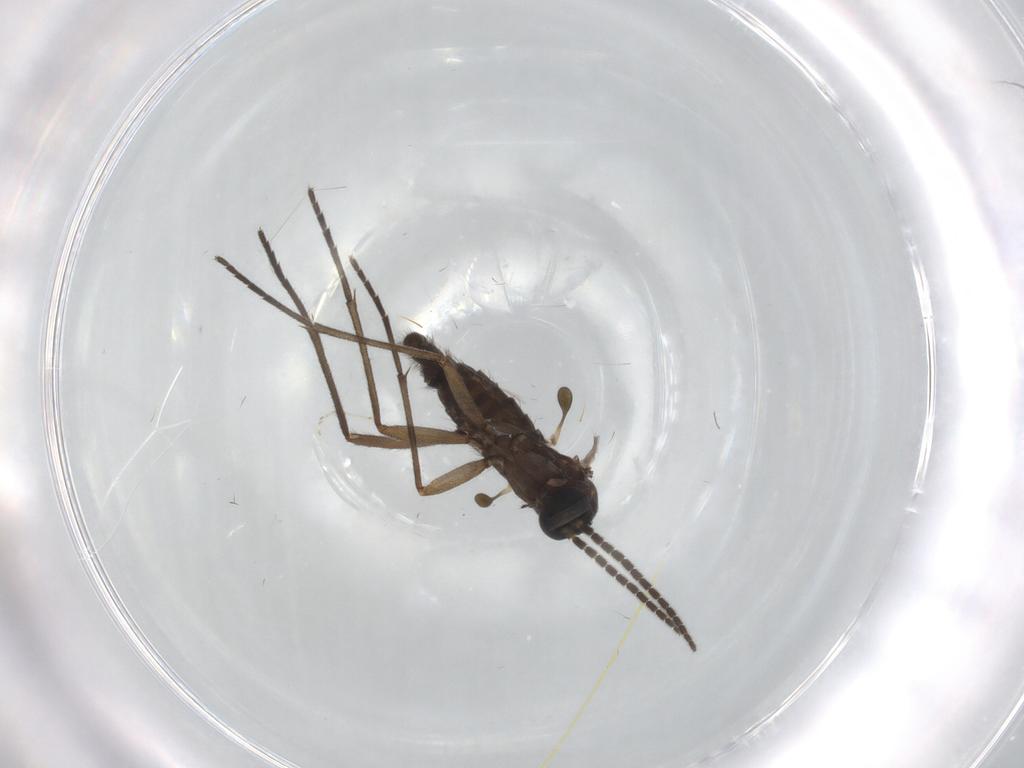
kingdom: Animalia
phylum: Arthropoda
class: Insecta
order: Diptera
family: Sciaridae
